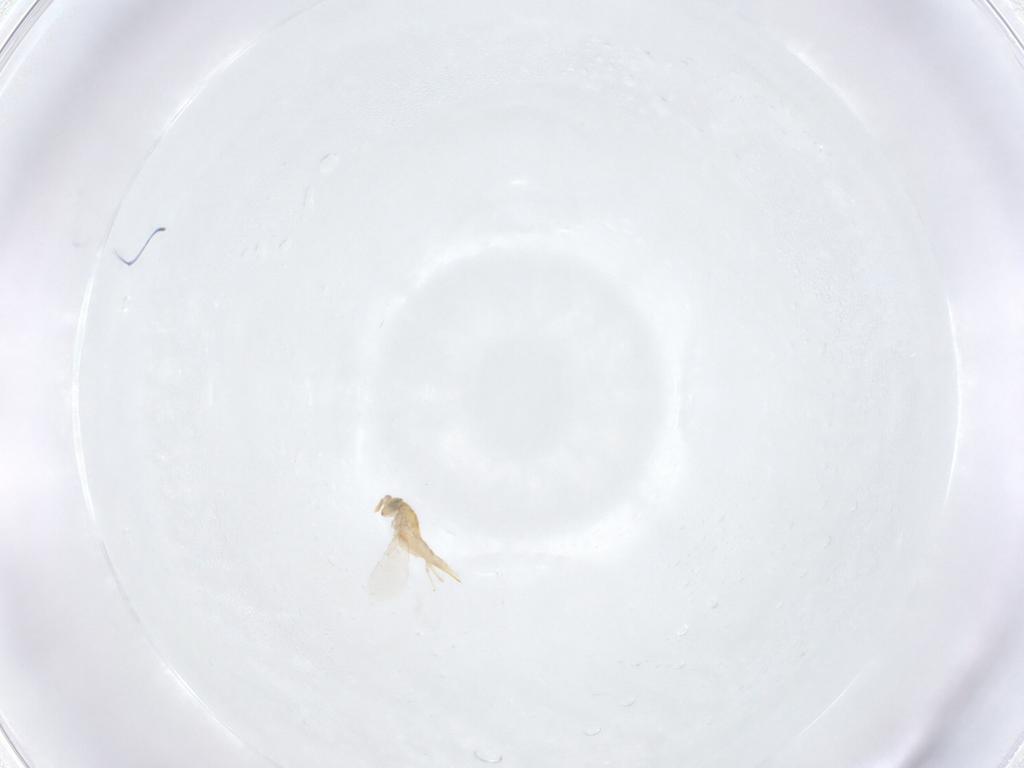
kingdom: Animalia
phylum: Arthropoda
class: Insecta
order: Hymenoptera
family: Aphelinidae
